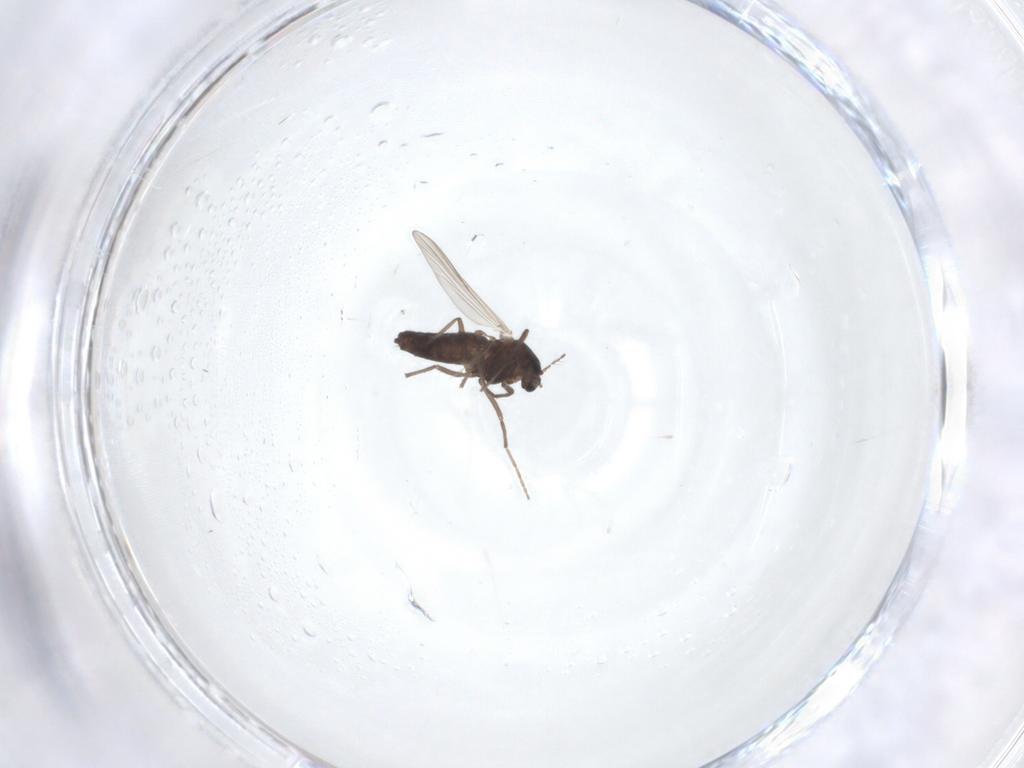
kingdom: Animalia
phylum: Arthropoda
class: Insecta
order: Diptera
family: Chironomidae
